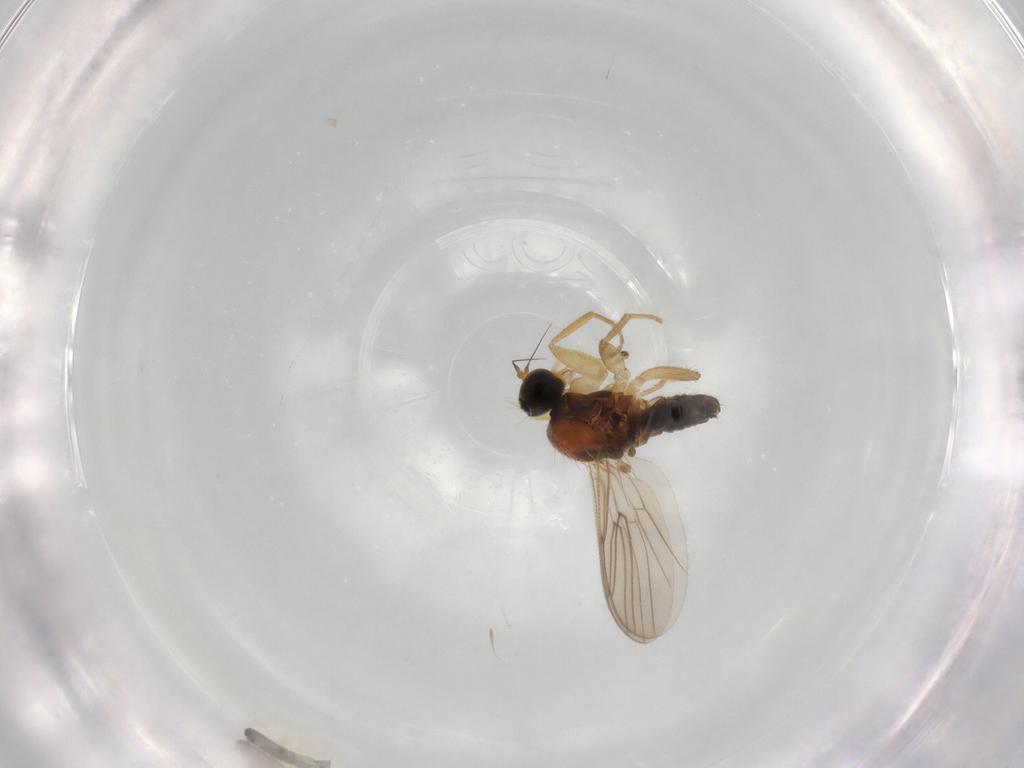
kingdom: Animalia
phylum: Arthropoda
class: Insecta
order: Diptera
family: Hybotidae
